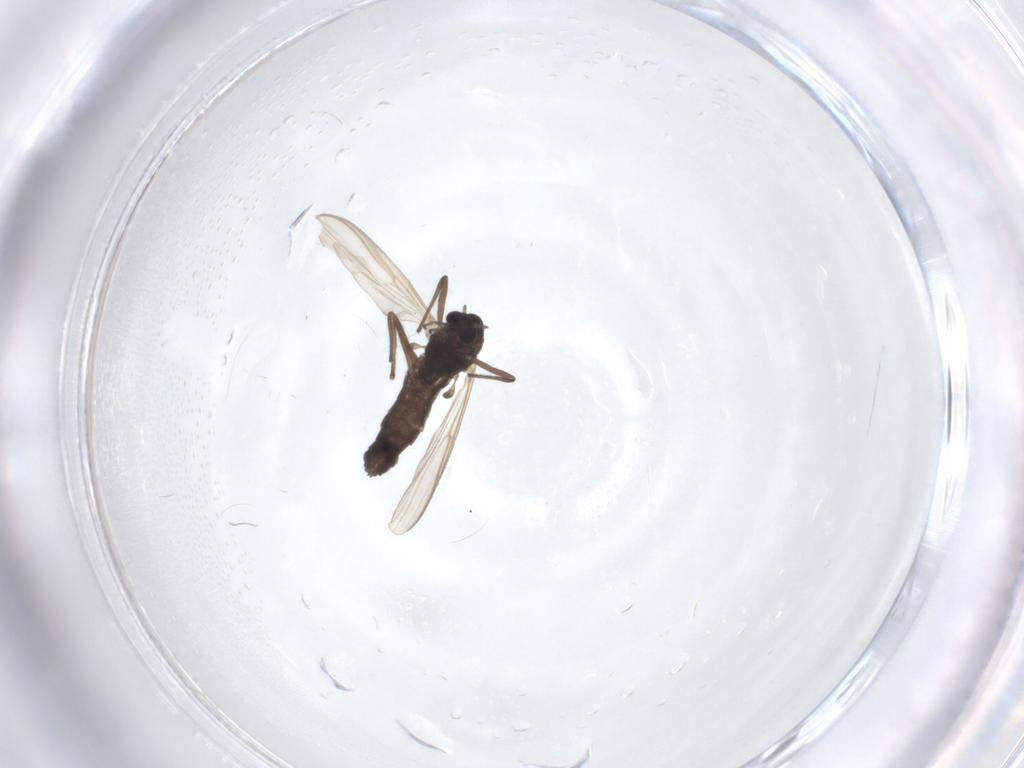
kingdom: Animalia
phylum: Arthropoda
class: Insecta
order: Diptera
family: Chironomidae
